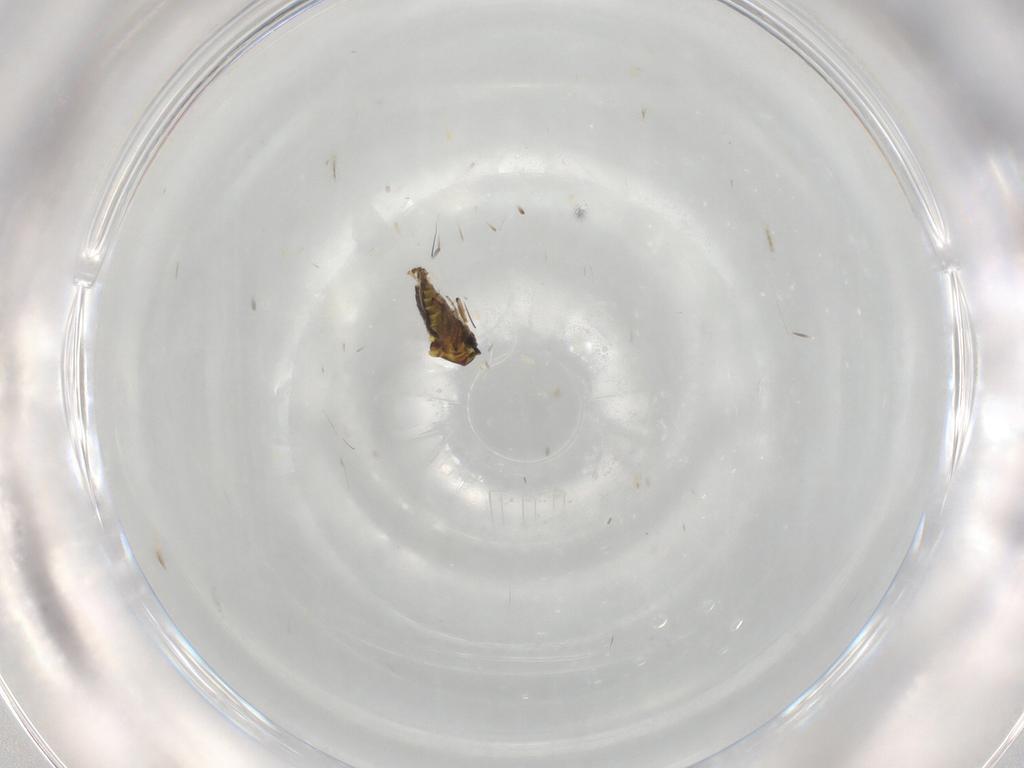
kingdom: Animalia
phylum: Arthropoda
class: Insecta
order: Diptera
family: Ceratopogonidae
